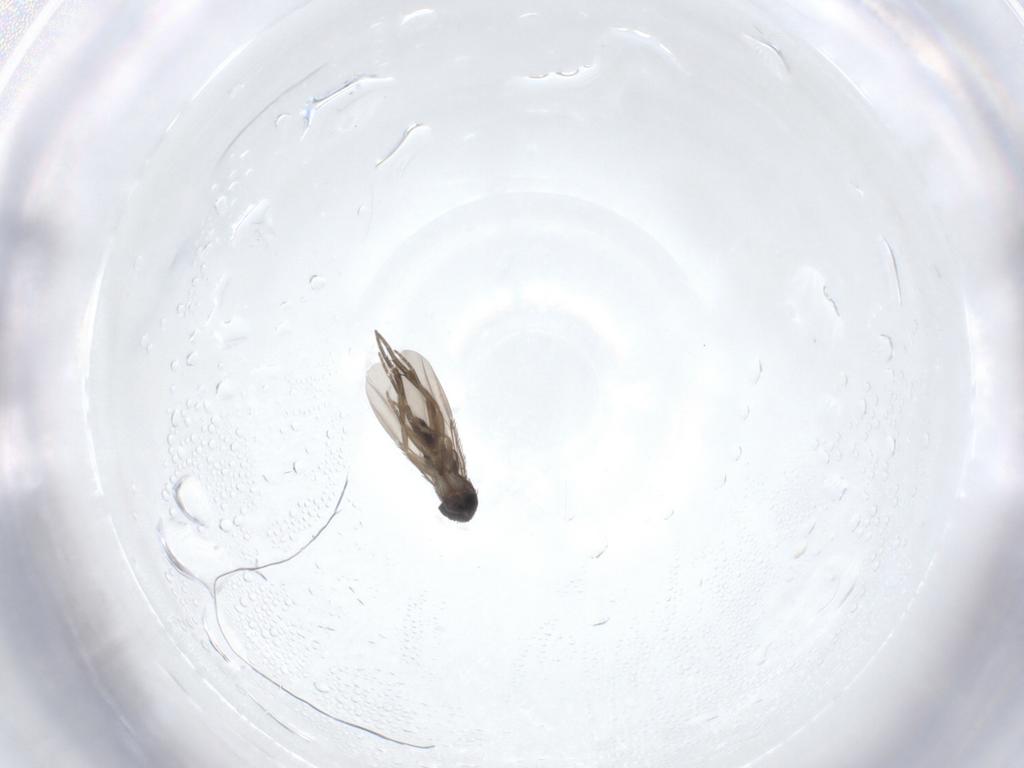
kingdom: Animalia
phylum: Arthropoda
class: Insecta
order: Diptera
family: Phoridae
